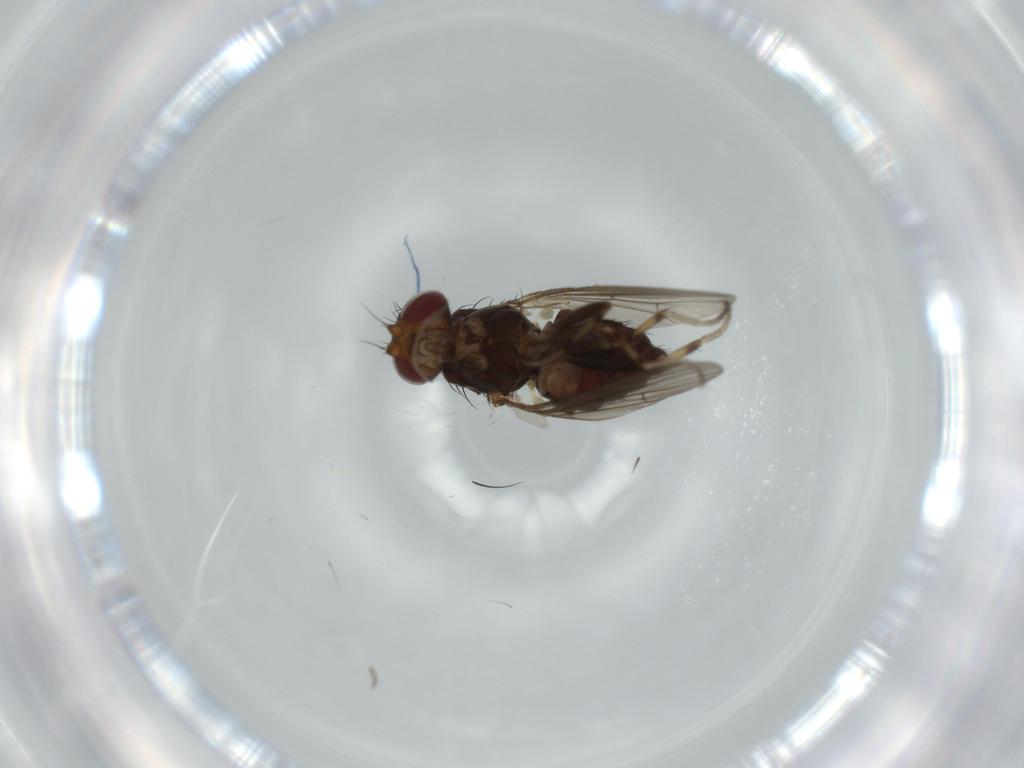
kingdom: Animalia
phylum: Arthropoda
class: Insecta
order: Diptera
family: Heleomyzidae
